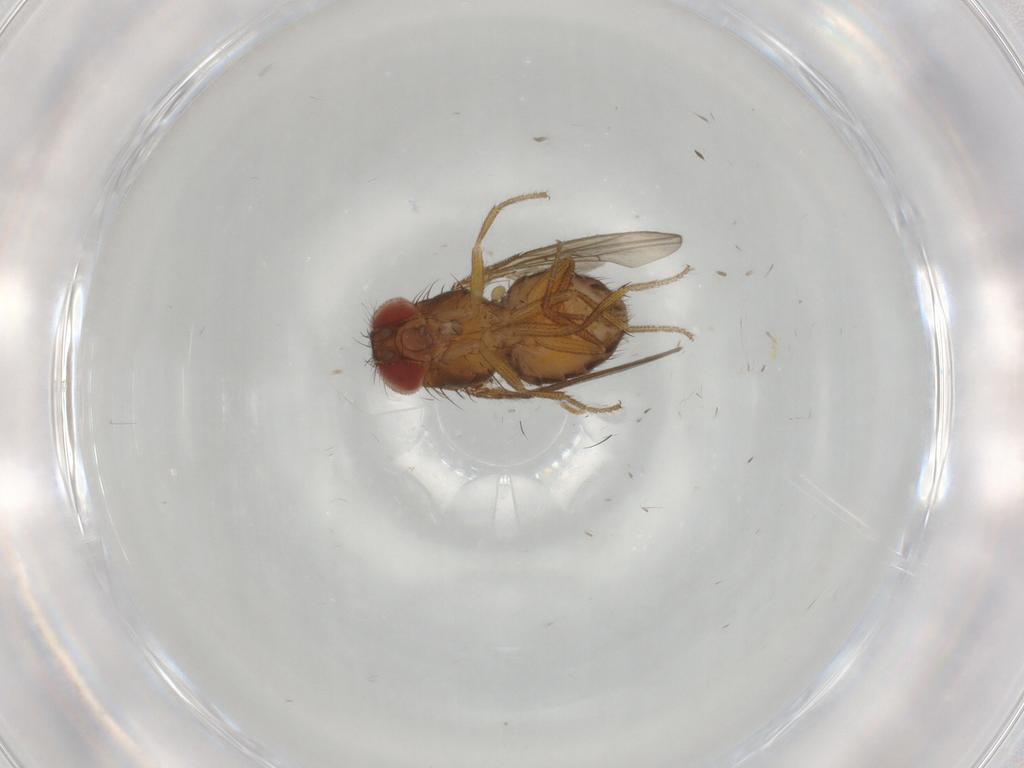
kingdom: Animalia
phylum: Arthropoda
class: Insecta
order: Diptera
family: Drosophilidae
